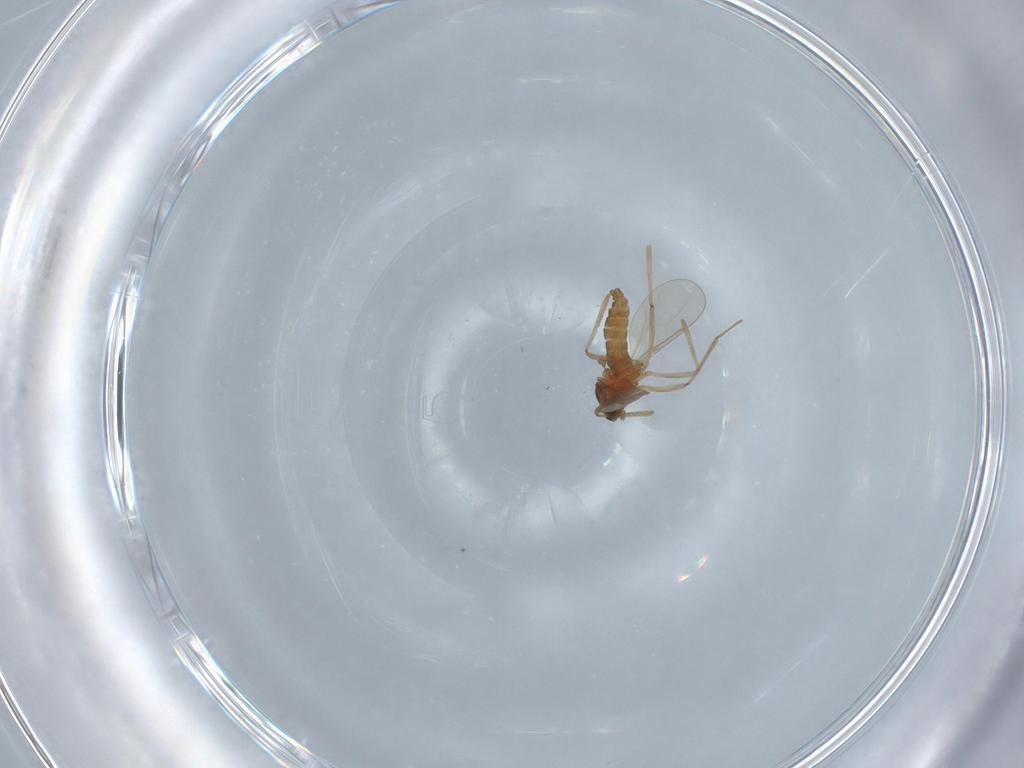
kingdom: Animalia
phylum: Arthropoda
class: Insecta
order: Diptera
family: Cecidomyiidae
